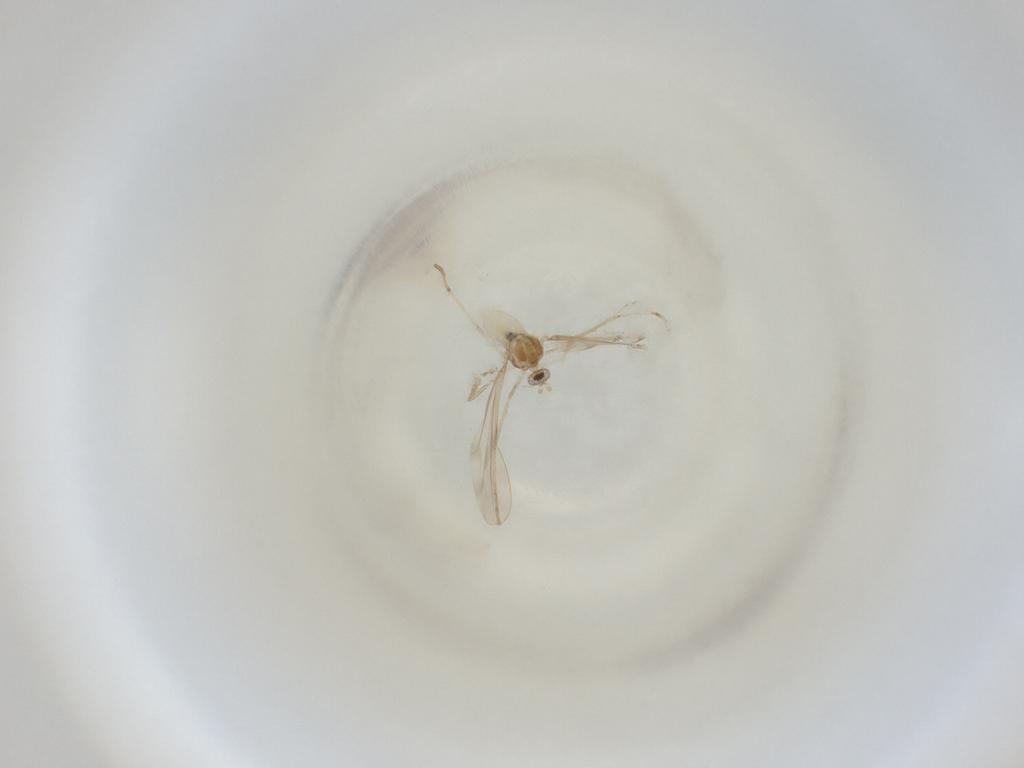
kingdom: Animalia
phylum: Arthropoda
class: Insecta
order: Diptera
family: Cecidomyiidae
